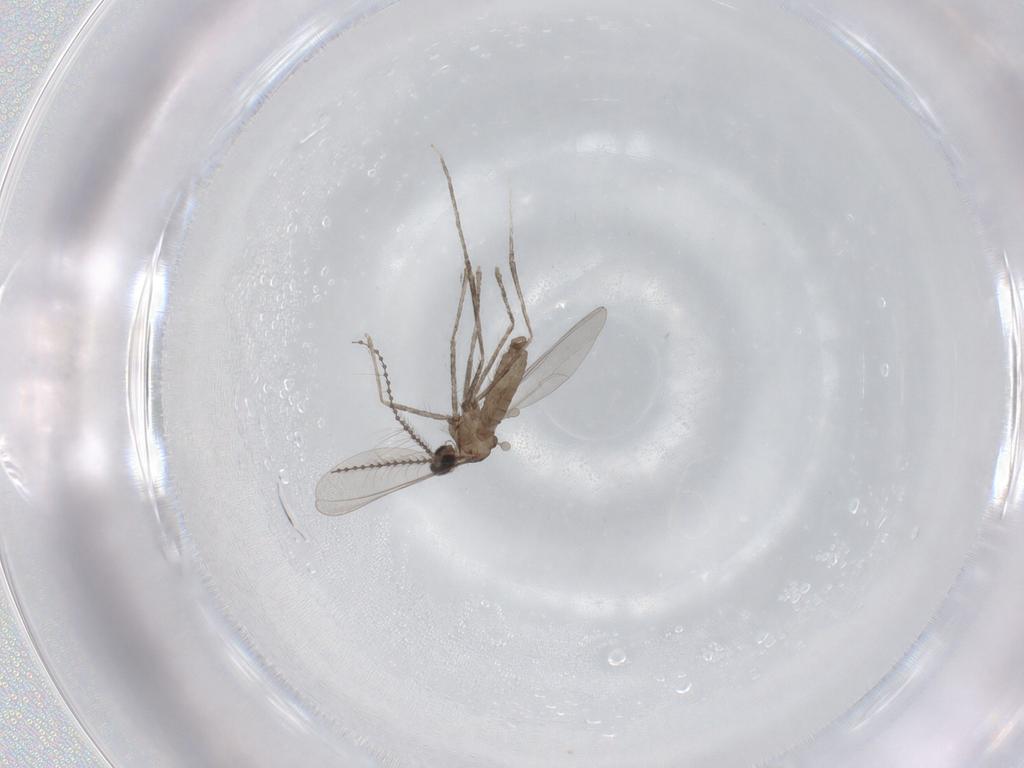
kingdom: Animalia
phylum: Arthropoda
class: Insecta
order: Diptera
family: Cecidomyiidae
